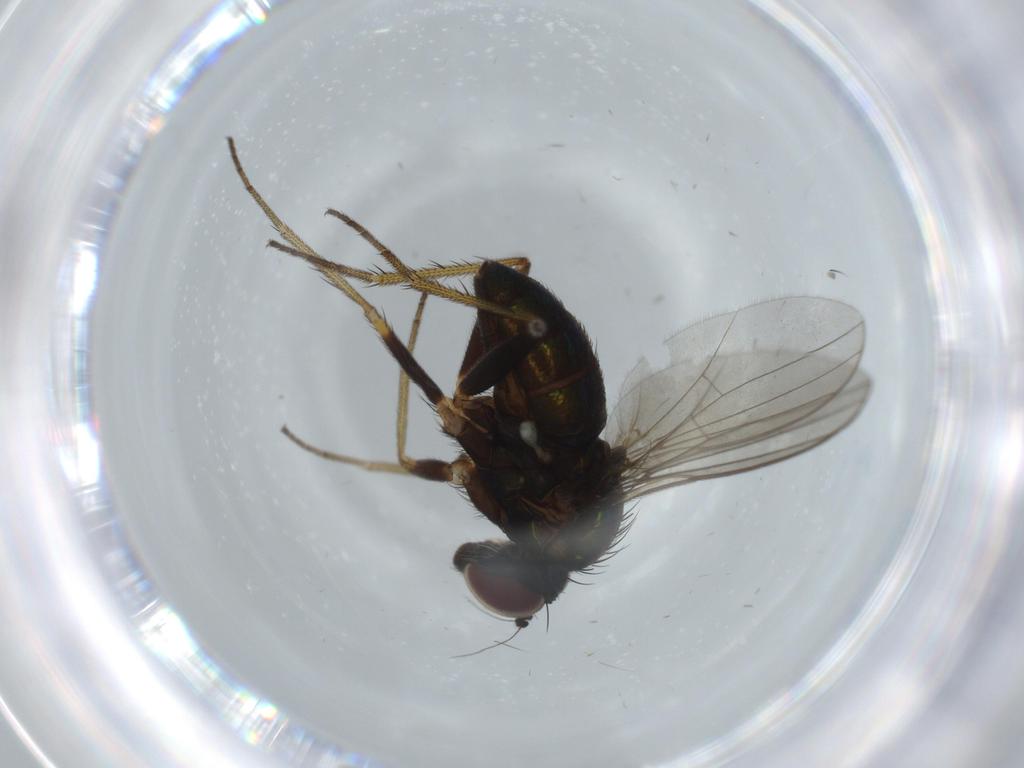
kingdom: Animalia
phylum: Arthropoda
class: Insecta
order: Diptera
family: Dolichopodidae
